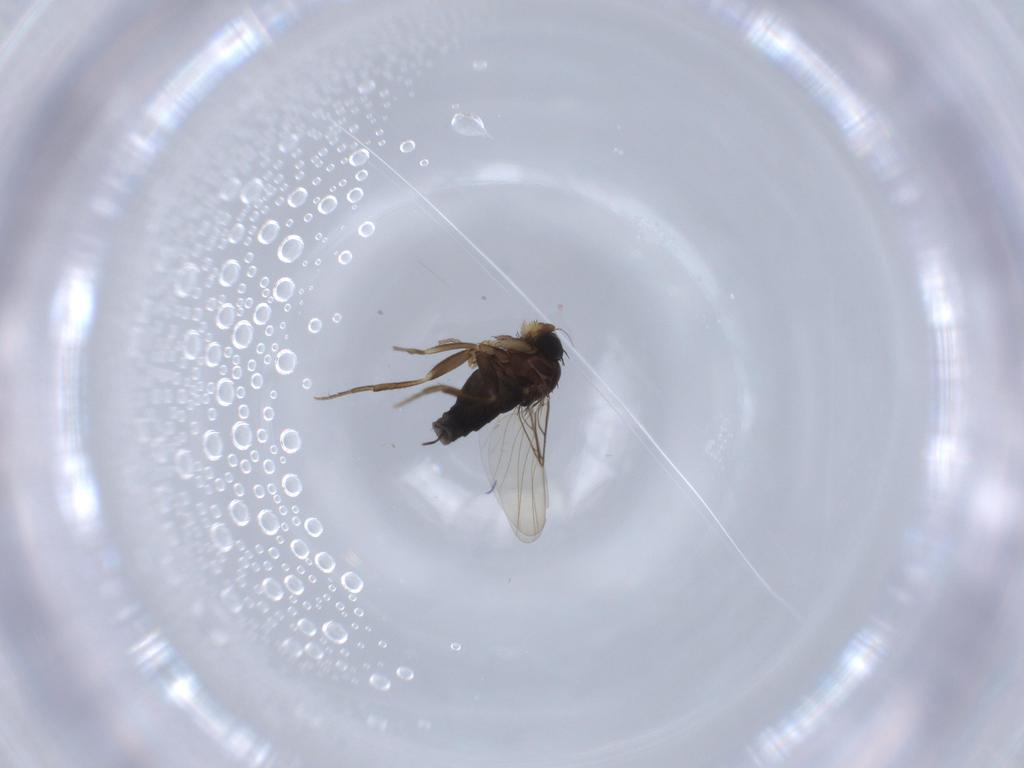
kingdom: Animalia
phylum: Arthropoda
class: Insecta
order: Diptera
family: Phoridae
